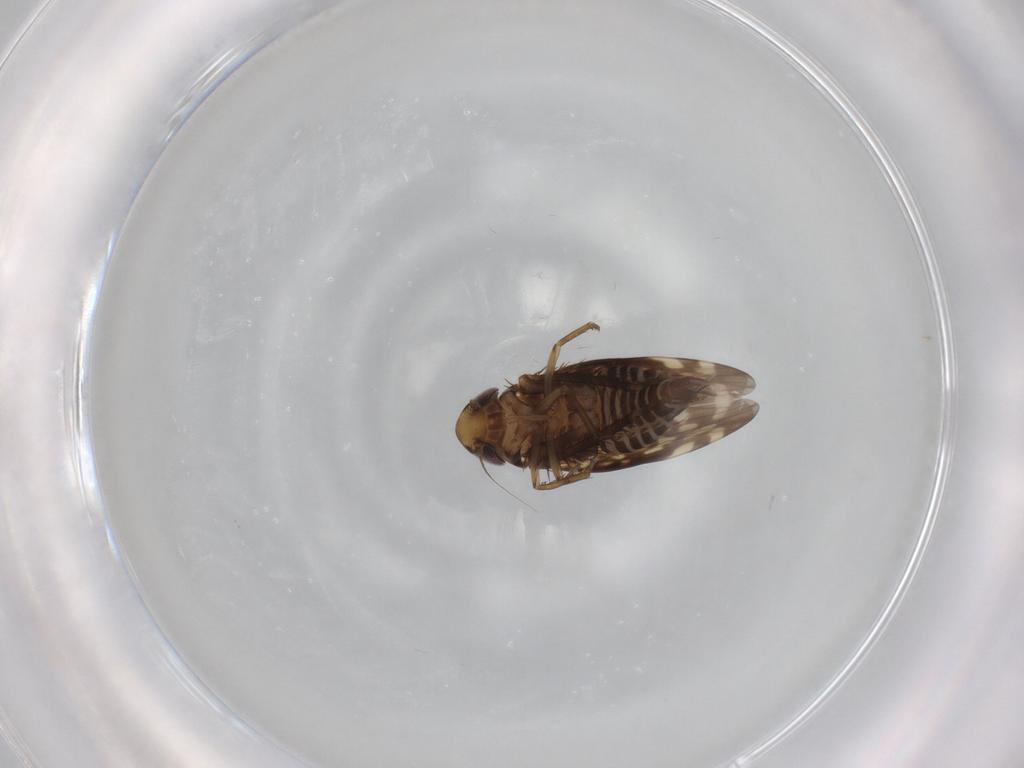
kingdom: Animalia
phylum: Arthropoda
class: Insecta
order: Hemiptera
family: Cicadellidae
